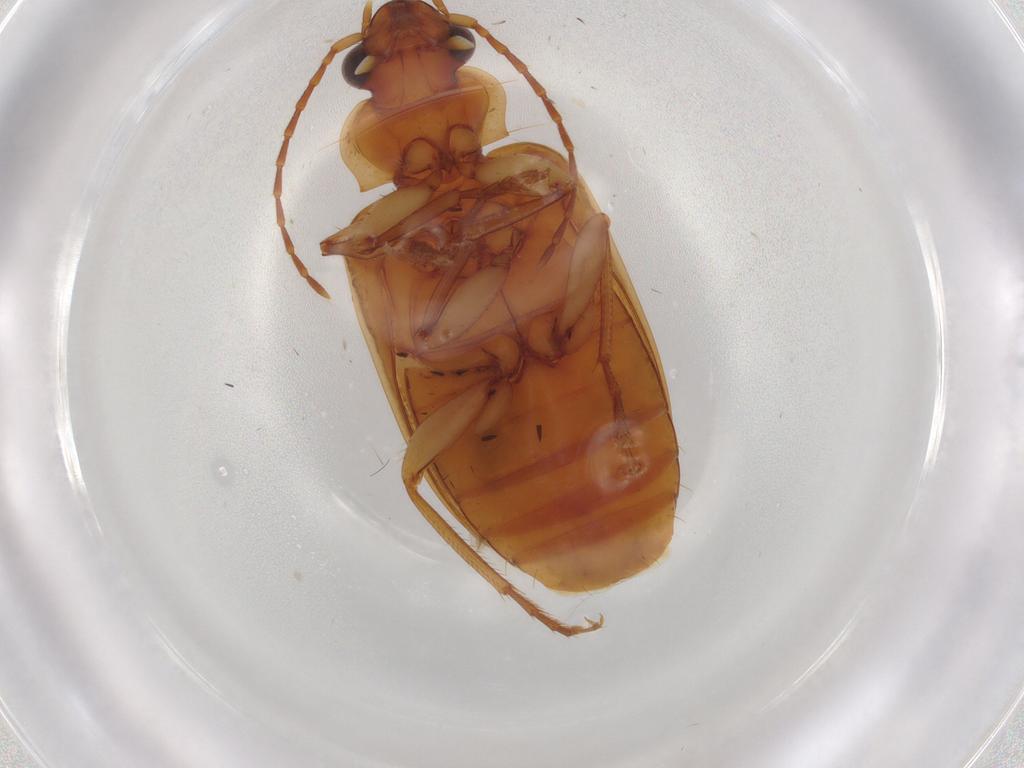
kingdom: Animalia
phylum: Arthropoda
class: Insecta
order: Coleoptera
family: Carabidae
